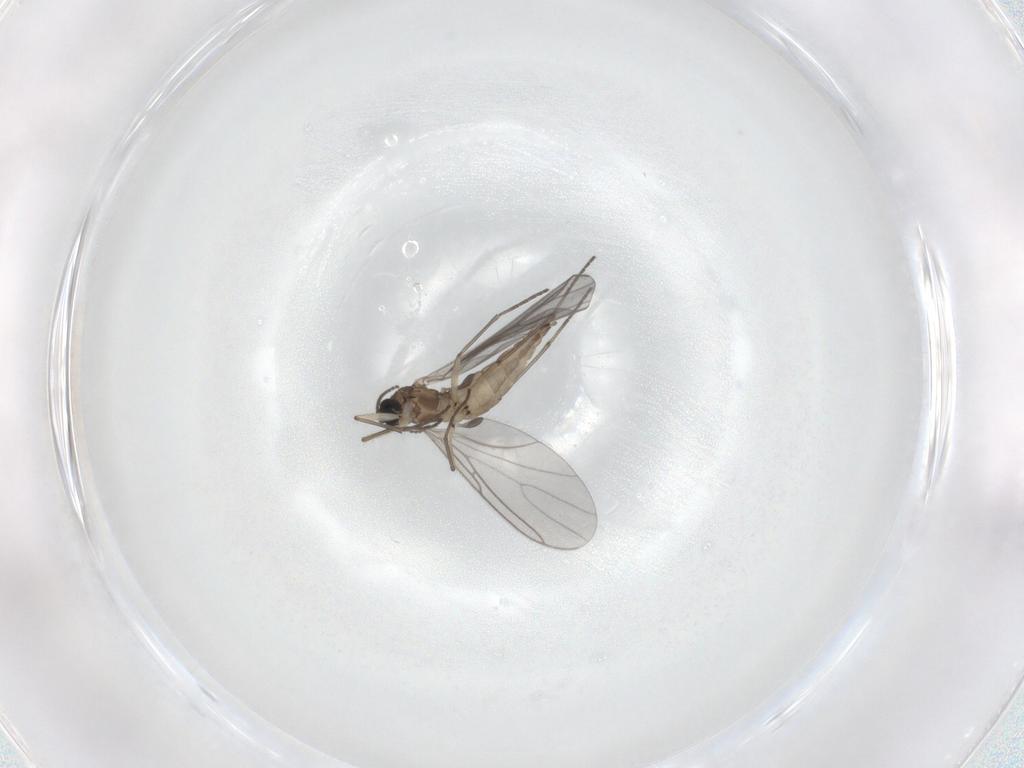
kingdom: Animalia
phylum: Arthropoda
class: Insecta
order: Diptera
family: Sciaridae
